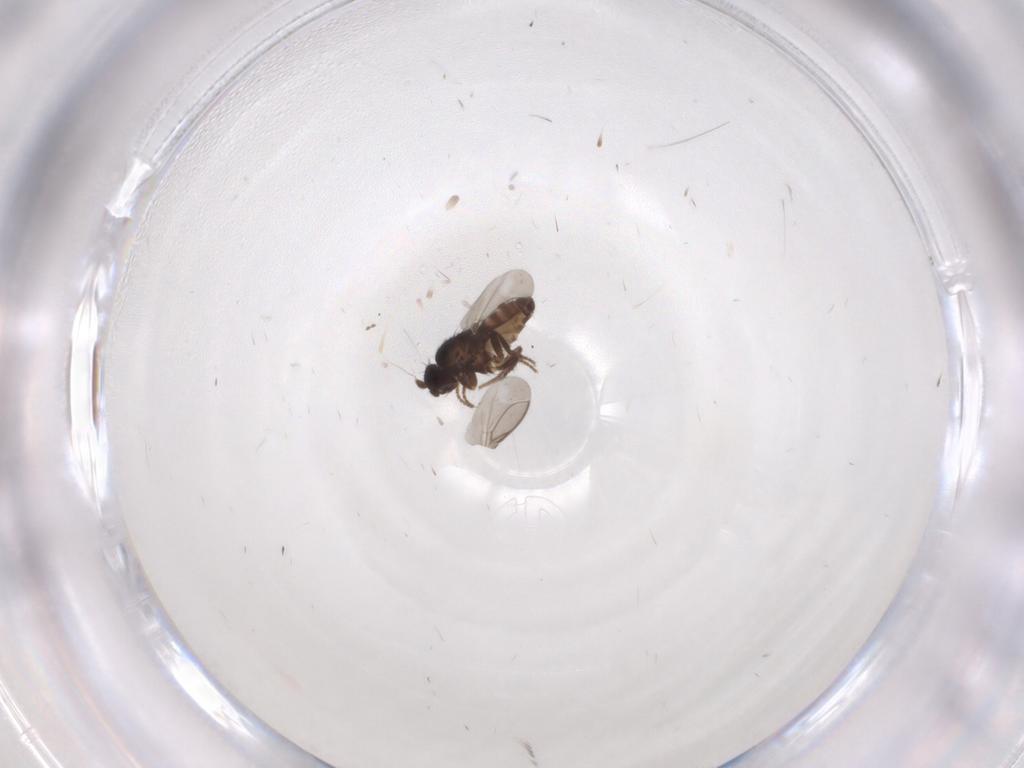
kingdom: Animalia
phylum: Arthropoda
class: Insecta
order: Diptera
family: Sphaeroceridae
